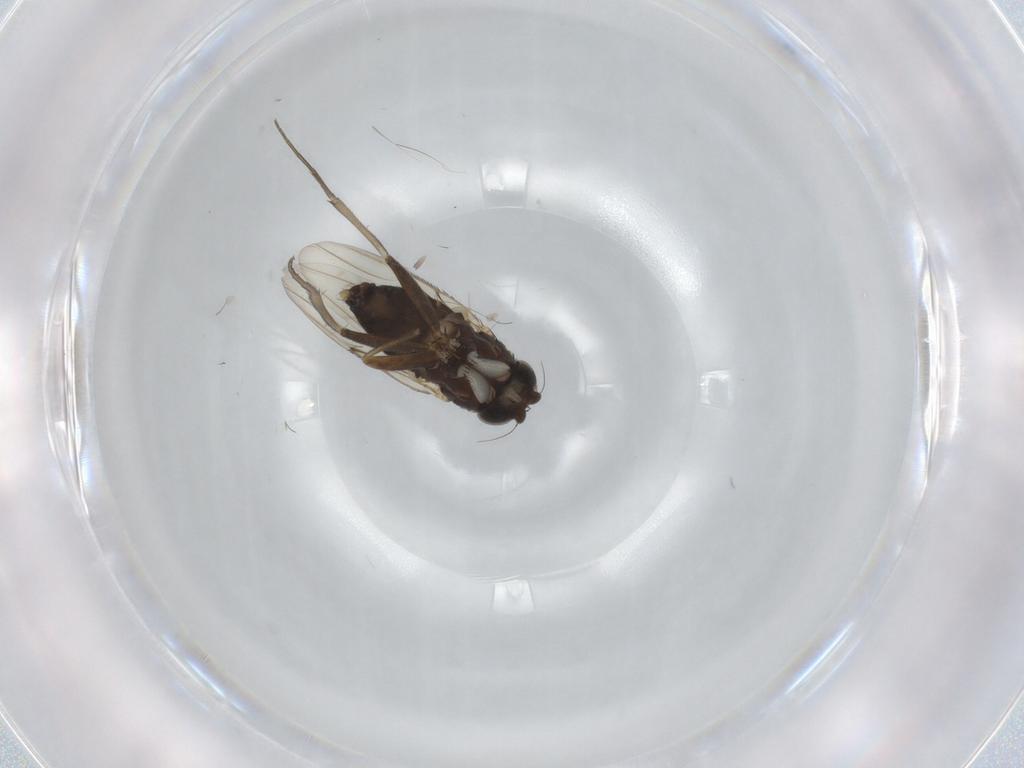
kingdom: Animalia
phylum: Arthropoda
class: Insecta
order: Diptera
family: Phoridae
